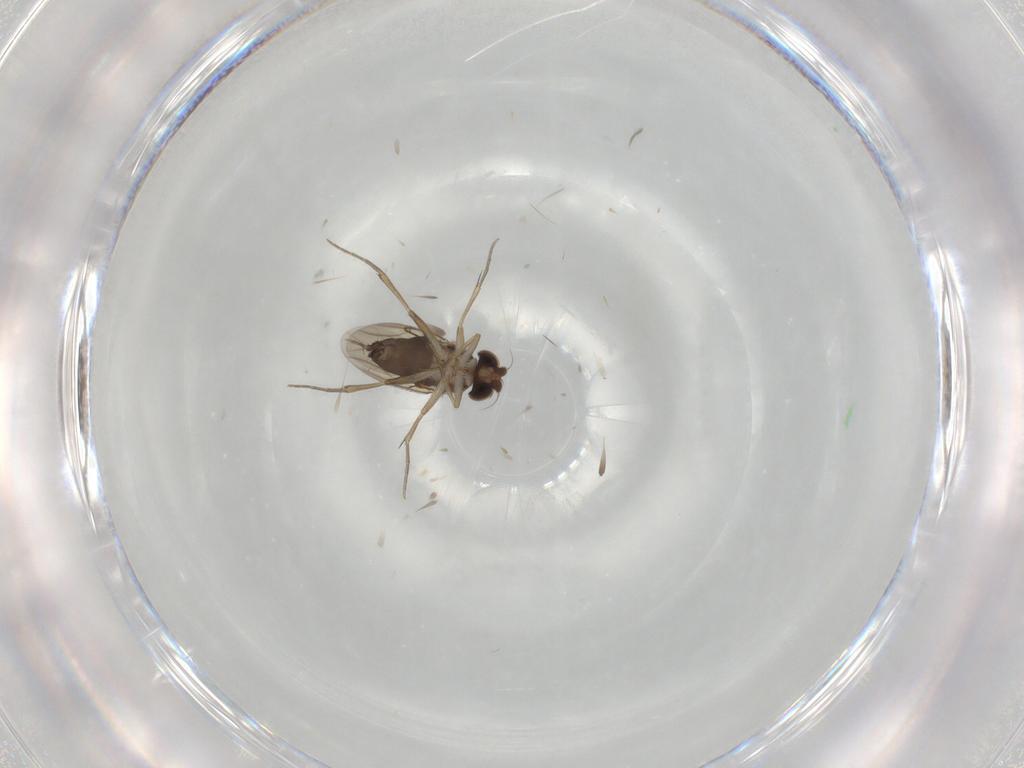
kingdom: Animalia
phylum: Arthropoda
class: Insecta
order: Diptera
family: Phoridae
